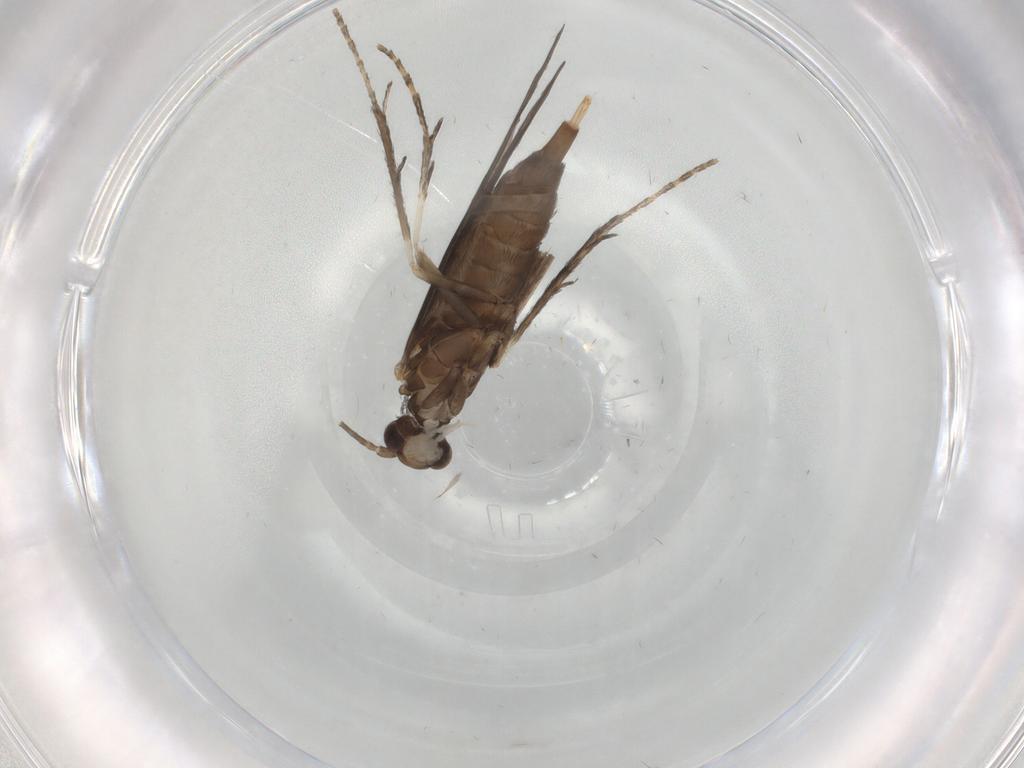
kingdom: Animalia
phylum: Arthropoda
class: Insecta
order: Trichoptera
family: Xiphocentronidae
